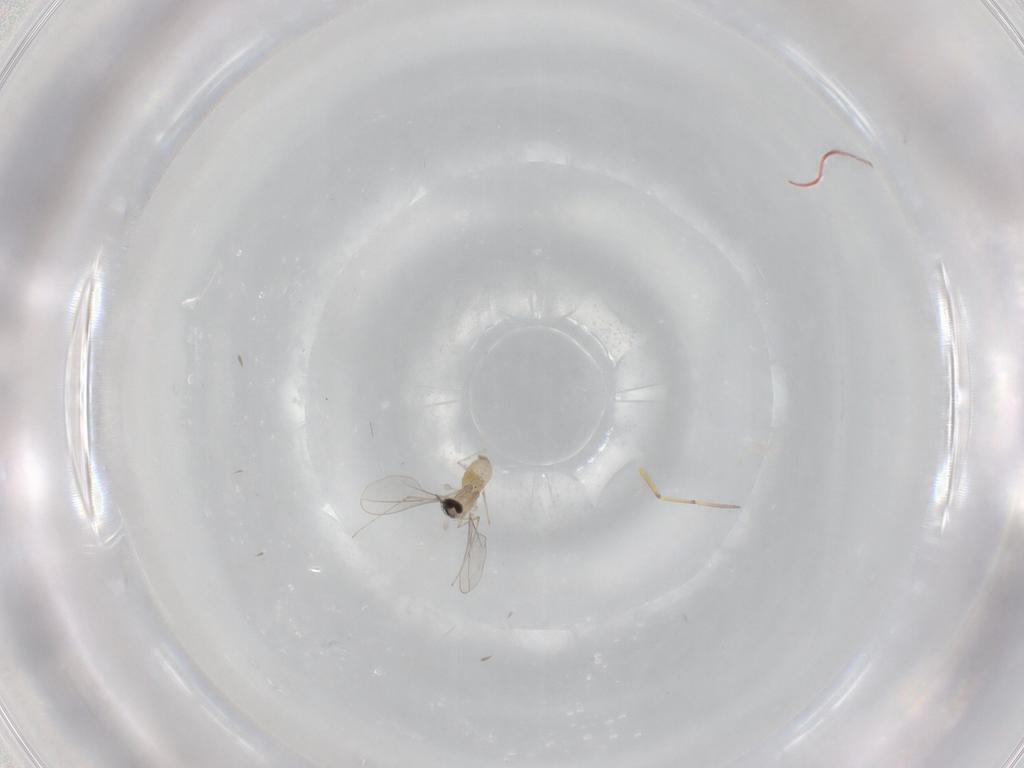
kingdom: Animalia
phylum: Arthropoda
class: Insecta
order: Diptera
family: Cecidomyiidae
